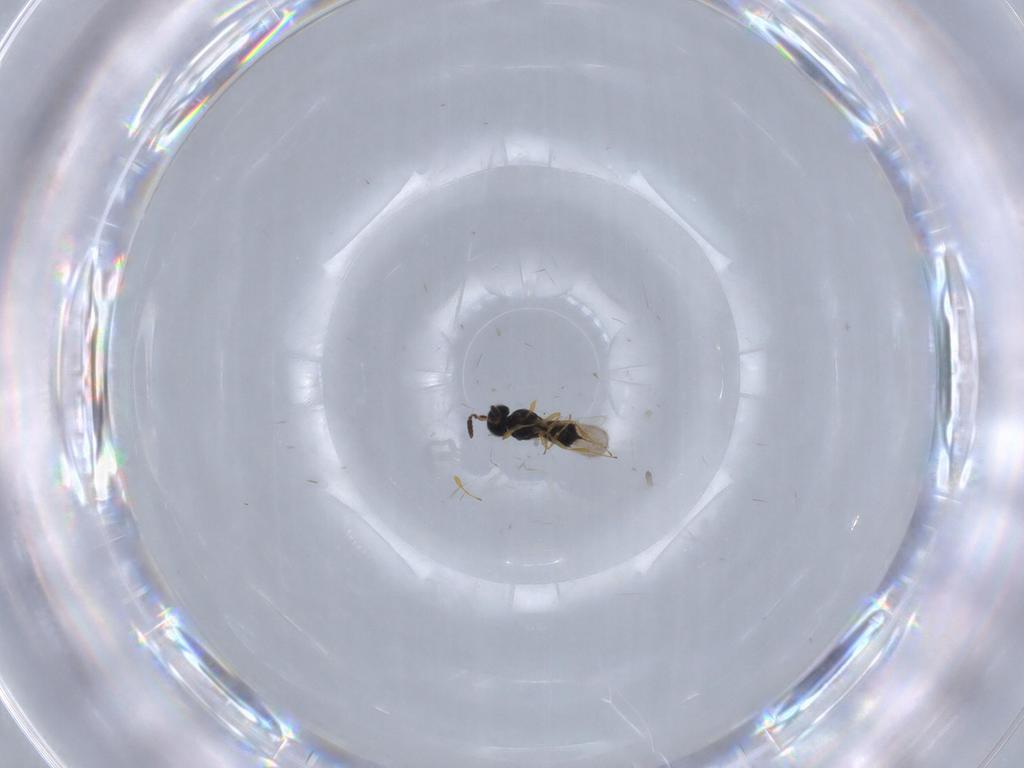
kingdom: Animalia
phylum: Arthropoda
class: Insecta
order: Hymenoptera
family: Scelionidae
